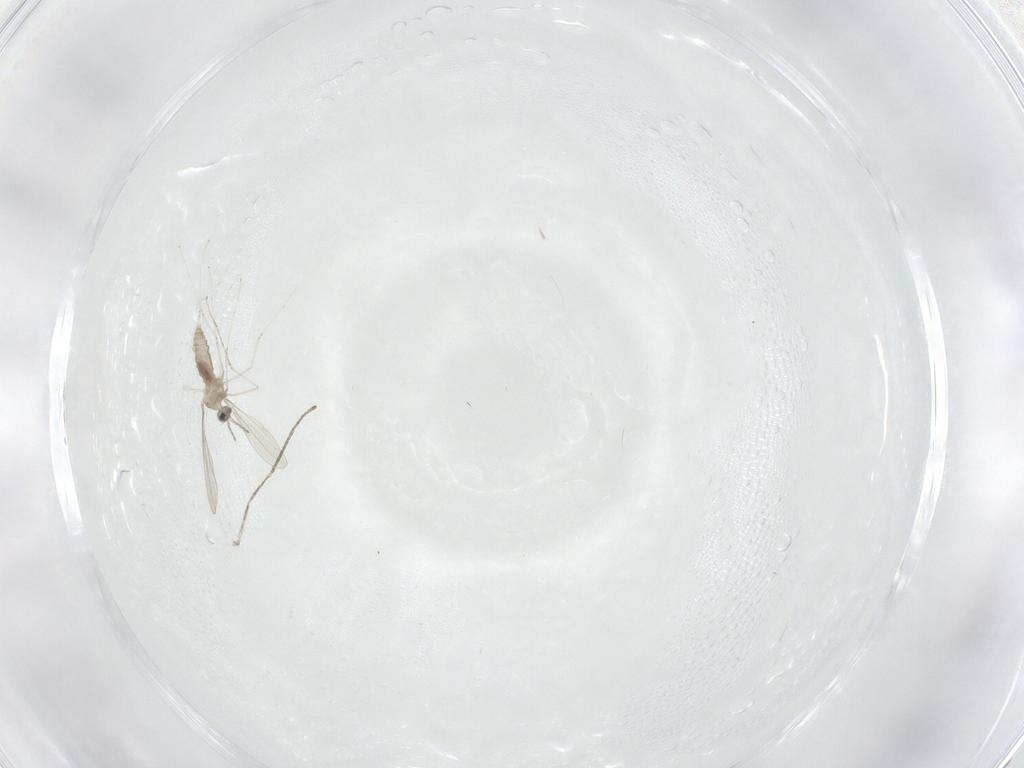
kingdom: Animalia
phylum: Arthropoda
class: Insecta
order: Diptera
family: Cecidomyiidae
